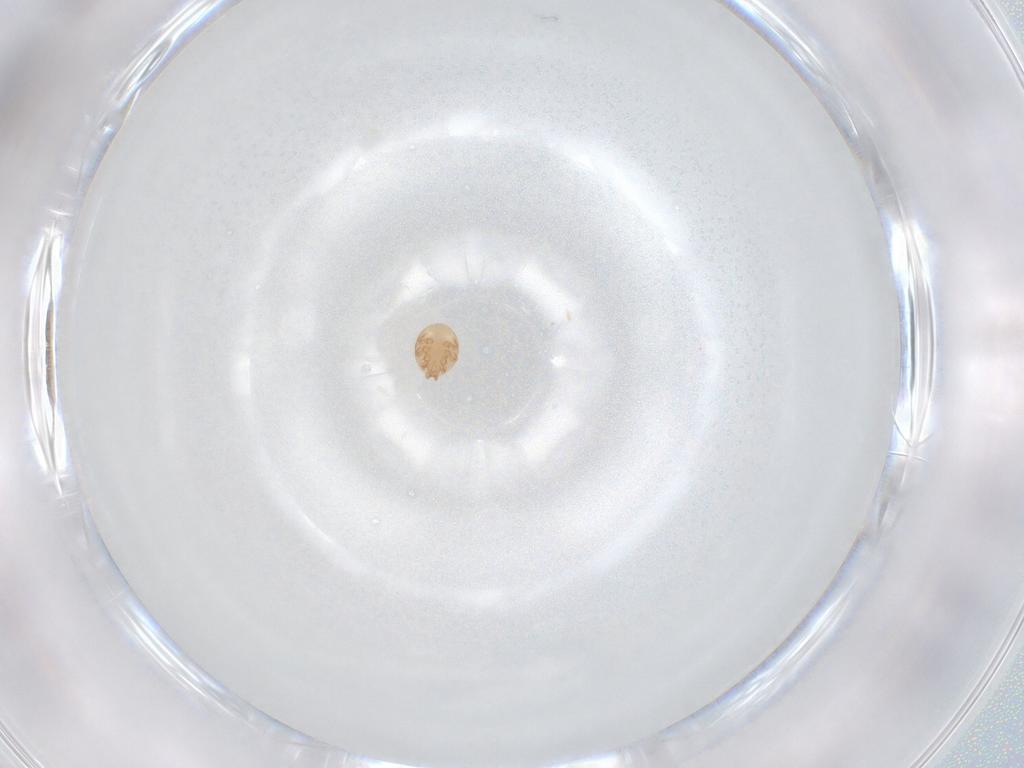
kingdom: Animalia
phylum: Arthropoda
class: Arachnida
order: Mesostigmata
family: Trematuridae
